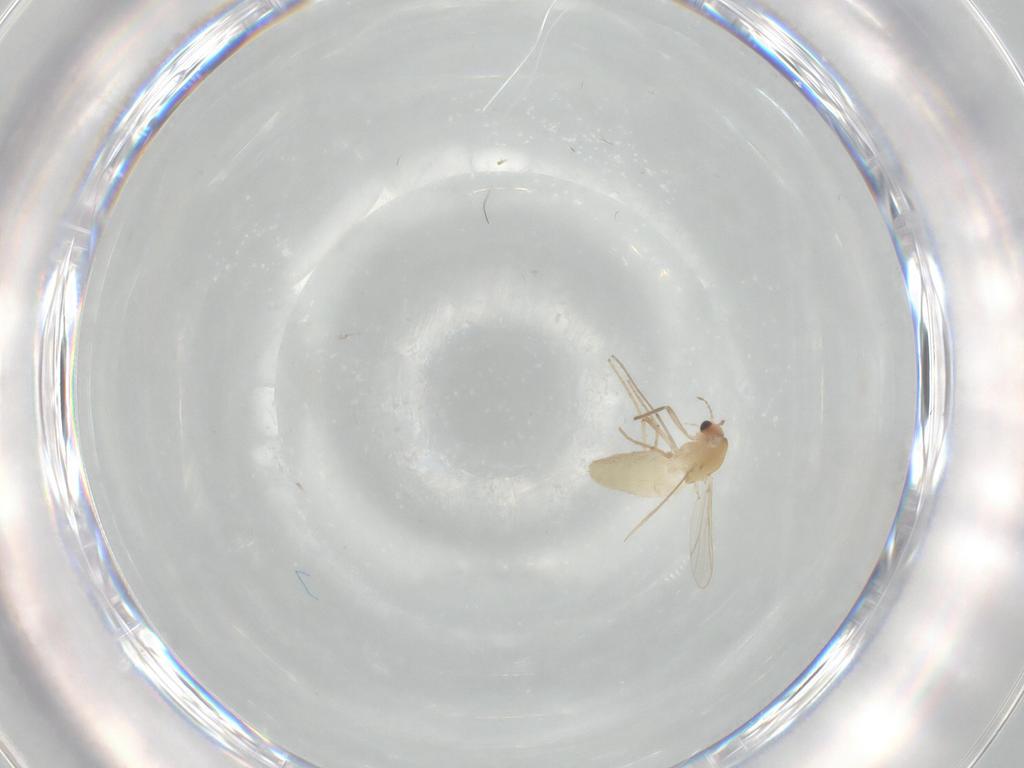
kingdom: Animalia
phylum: Arthropoda
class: Insecta
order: Diptera
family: Chironomidae
